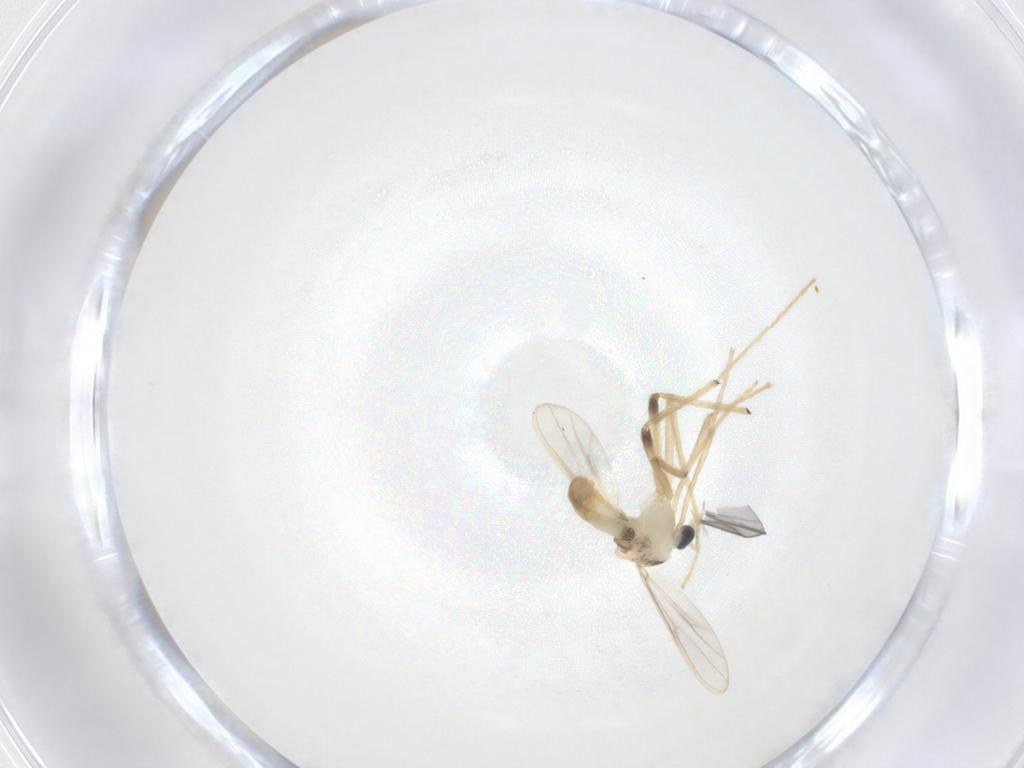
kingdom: Animalia
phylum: Arthropoda
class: Insecta
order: Diptera
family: Chironomidae
